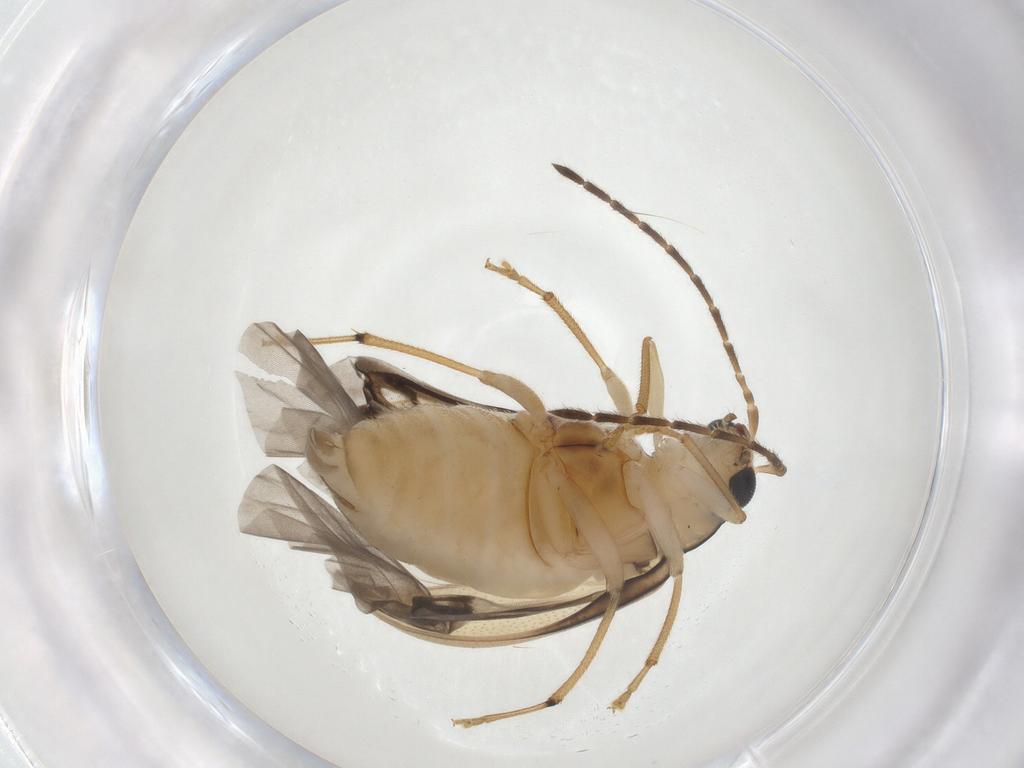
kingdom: Animalia
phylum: Arthropoda
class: Insecta
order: Coleoptera
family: Chrysomelidae
